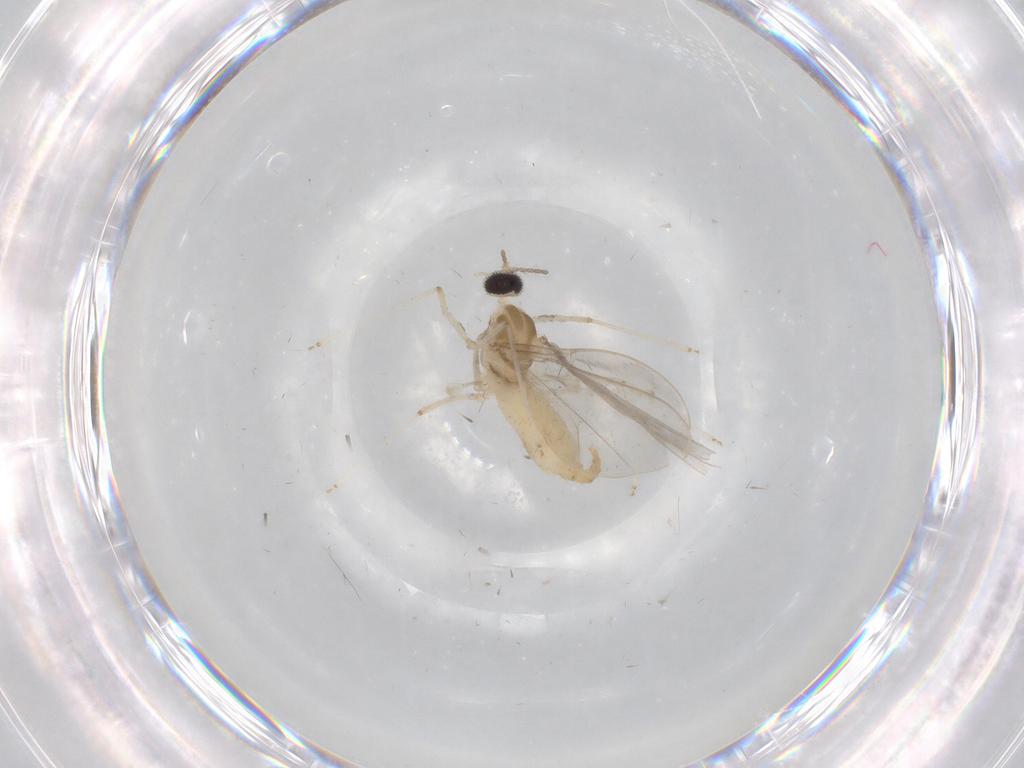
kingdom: Animalia
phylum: Arthropoda
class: Insecta
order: Diptera
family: Cecidomyiidae
